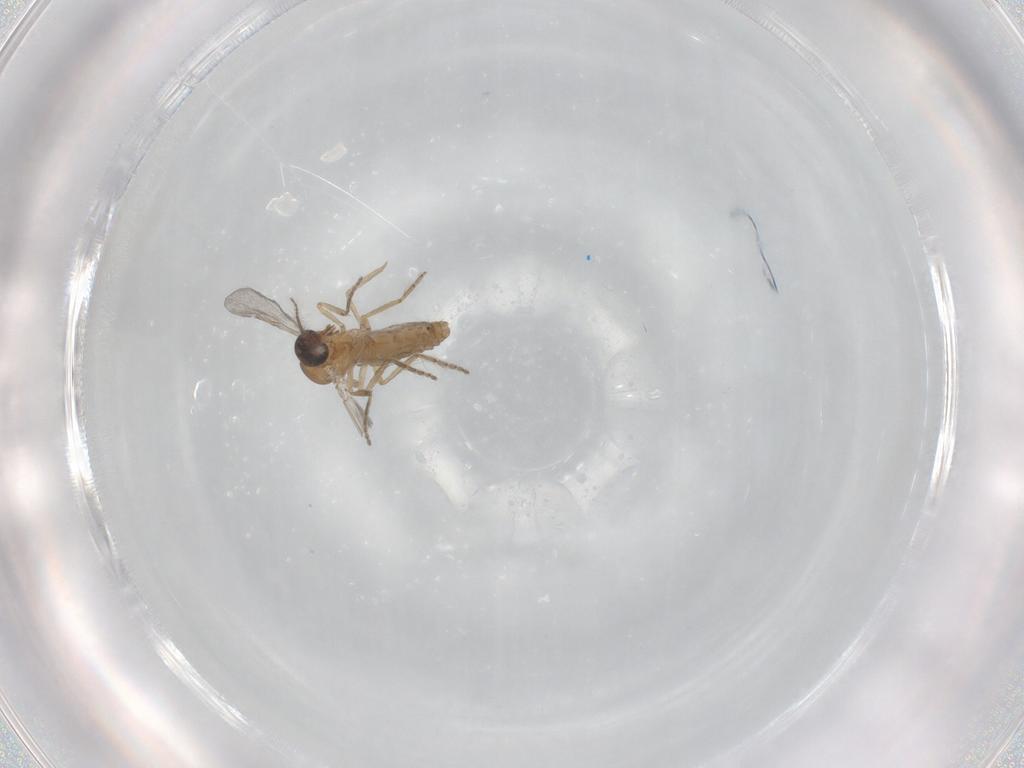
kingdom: Animalia
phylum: Arthropoda
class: Insecta
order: Diptera
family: Ceratopogonidae
